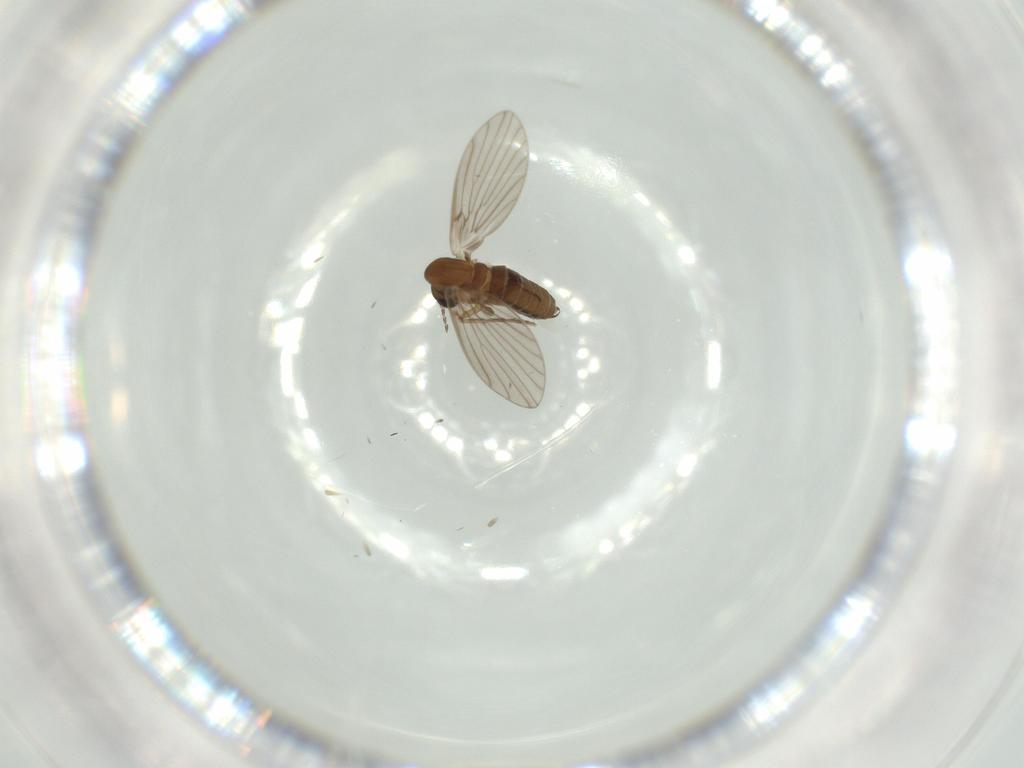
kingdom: Animalia
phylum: Arthropoda
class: Insecta
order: Diptera
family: Psychodidae
